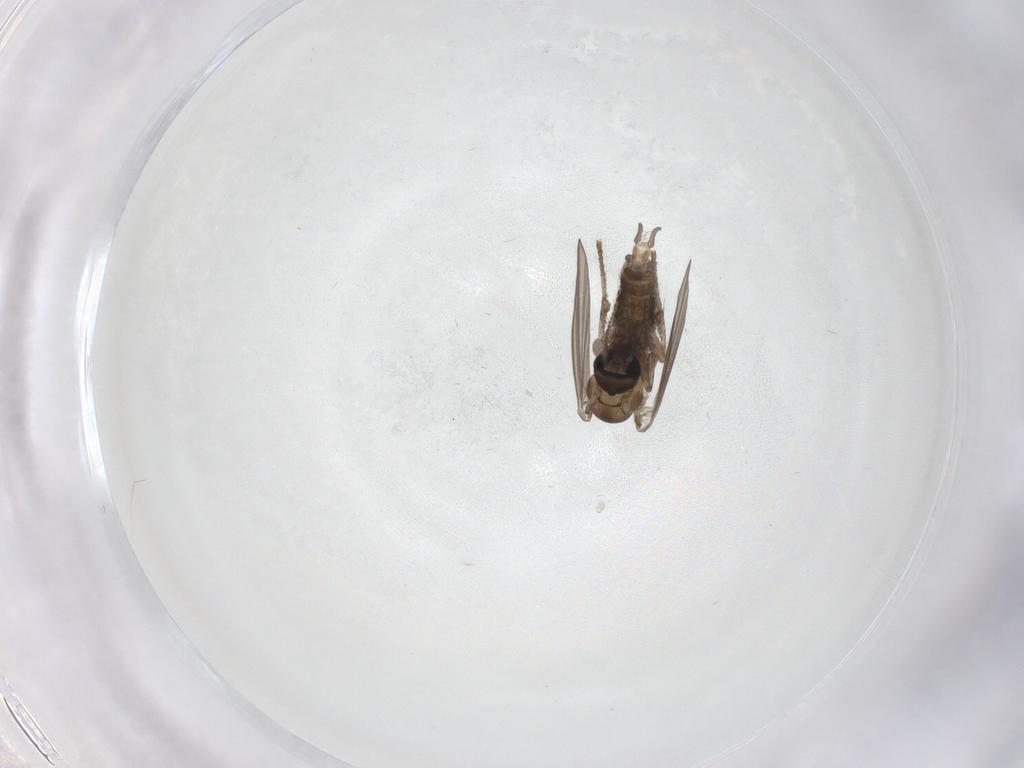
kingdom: Animalia
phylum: Arthropoda
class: Insecta
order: Diptera
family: Psychodidae
